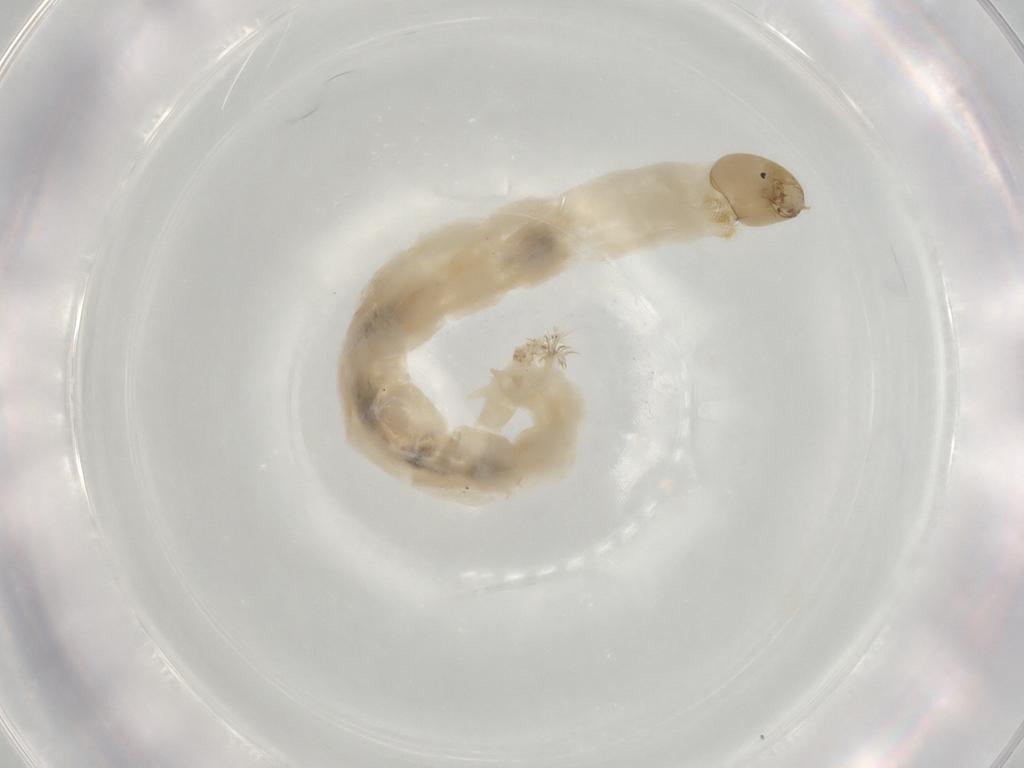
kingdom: Animalia
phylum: Arthropoda
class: Insecta
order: Diptera
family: Chironomidae
